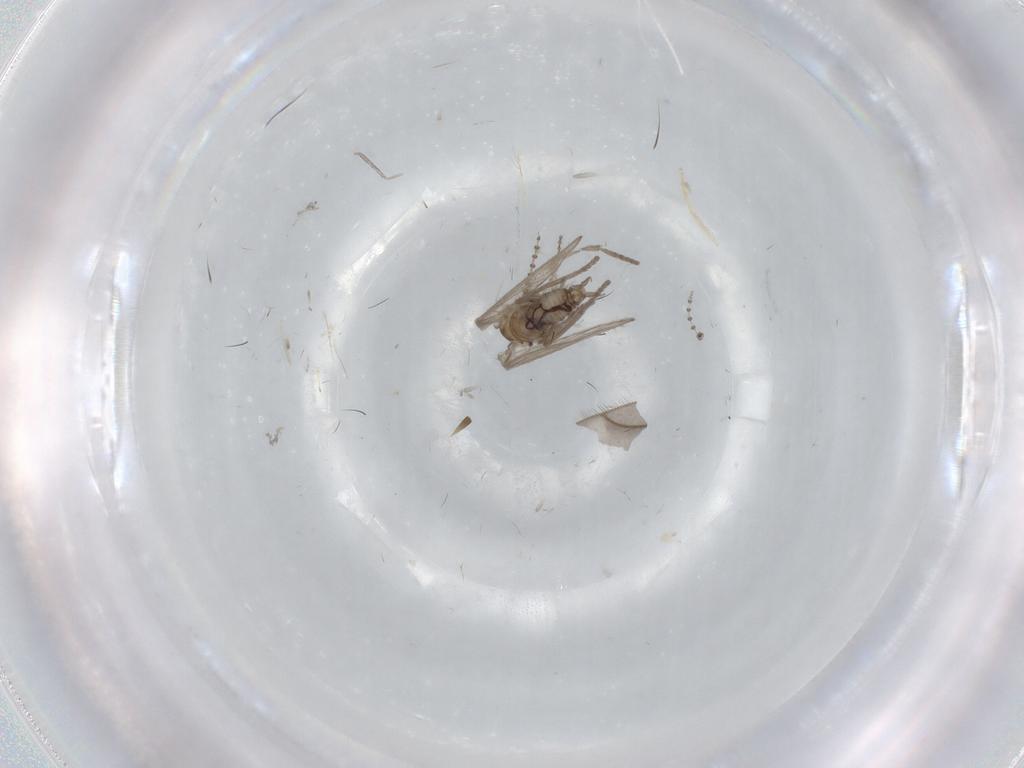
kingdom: Animalia
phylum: Arthropoda
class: Insecta
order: Diptera
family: Psychodidae
